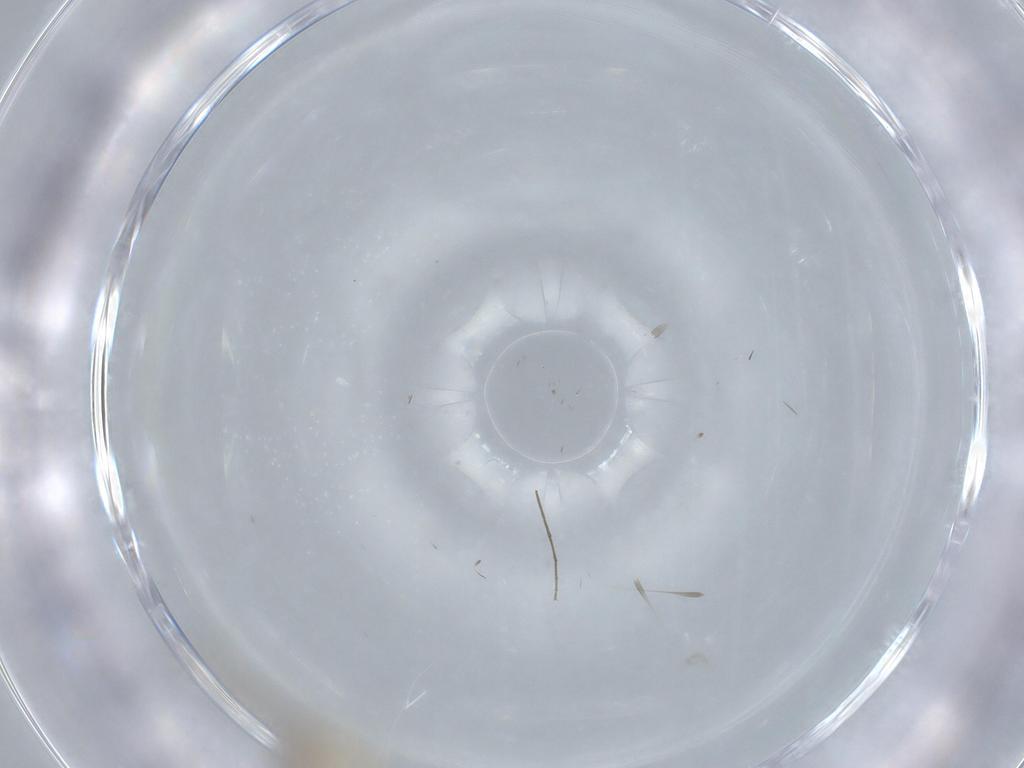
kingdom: Animalia
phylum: Arthropoda
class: Insecta
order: Diptera
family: Chironomidae
